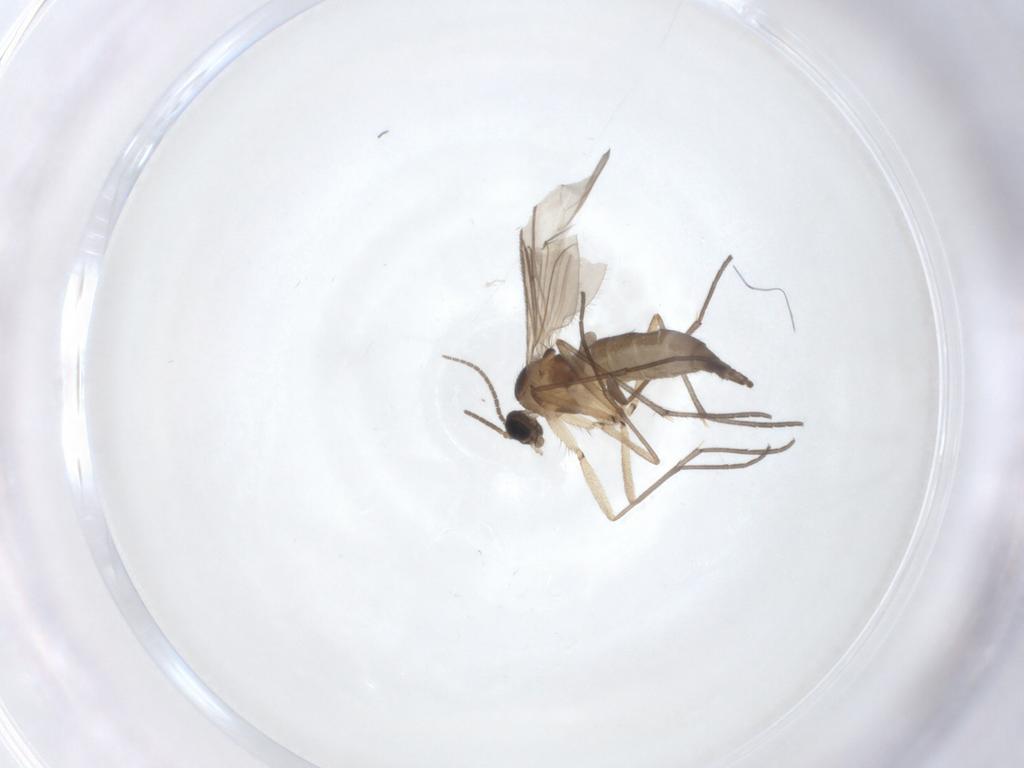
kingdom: Animalia
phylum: Arthropoda
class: Insecta
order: Diptera
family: Sciaridae
